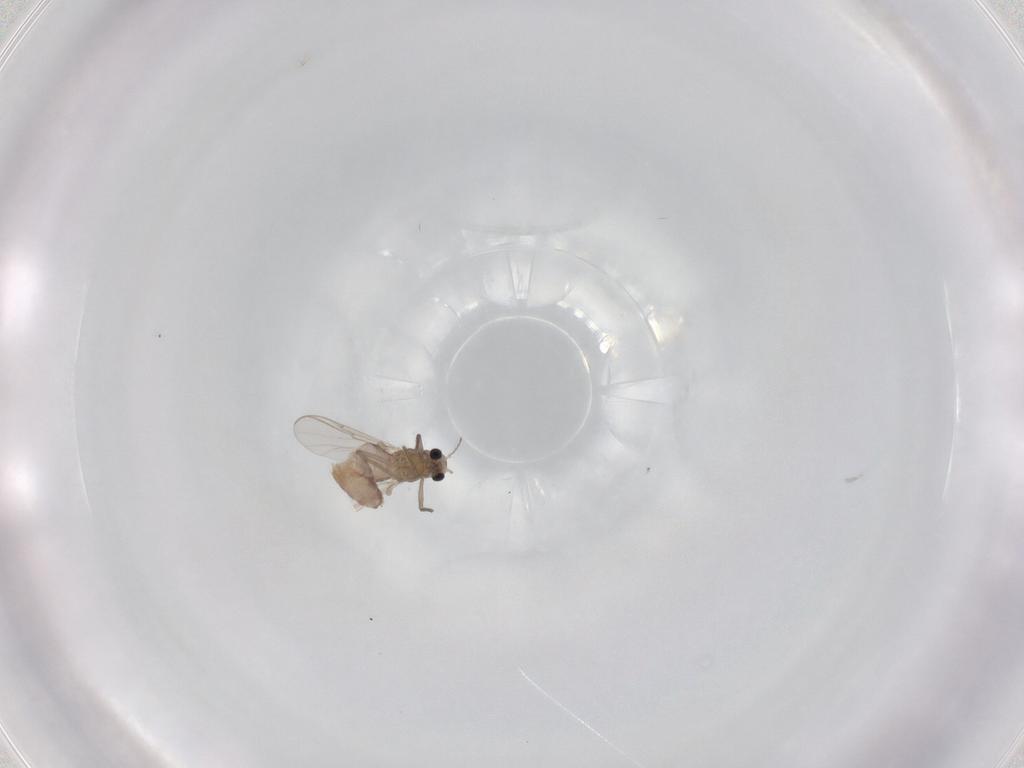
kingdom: Animalia
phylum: Arthropoda
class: Insecta
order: Diptera
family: Chironomidae
